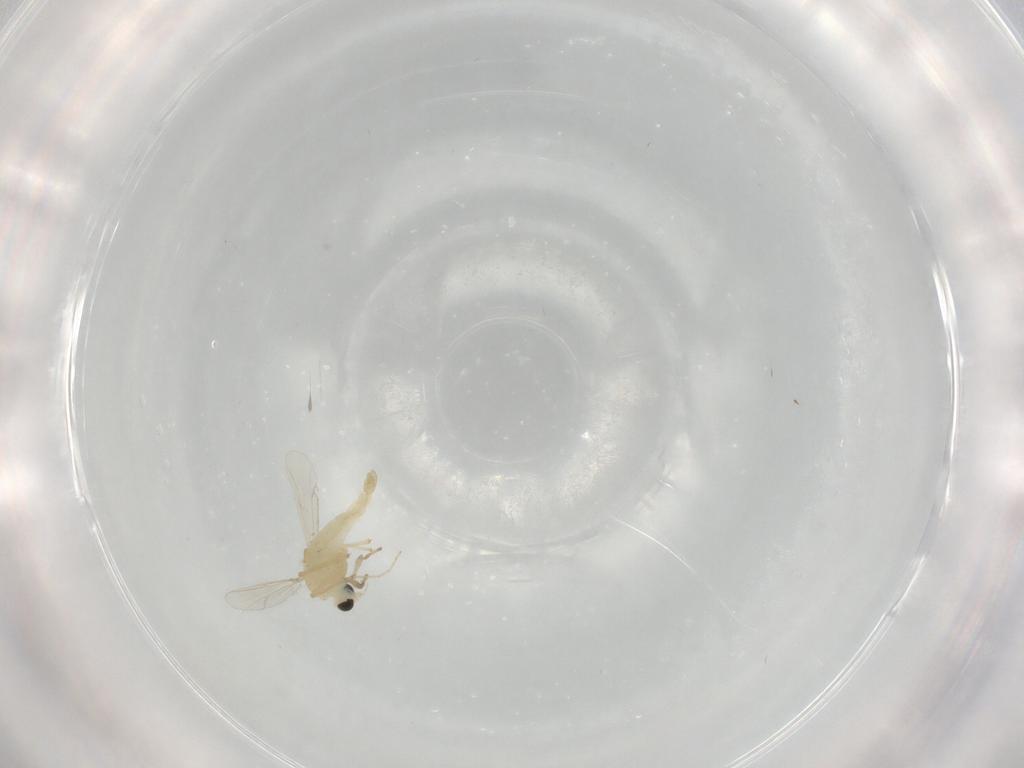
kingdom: Animalia
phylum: Arthropoda
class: Insecta
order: Diptera
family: Chironomidae
